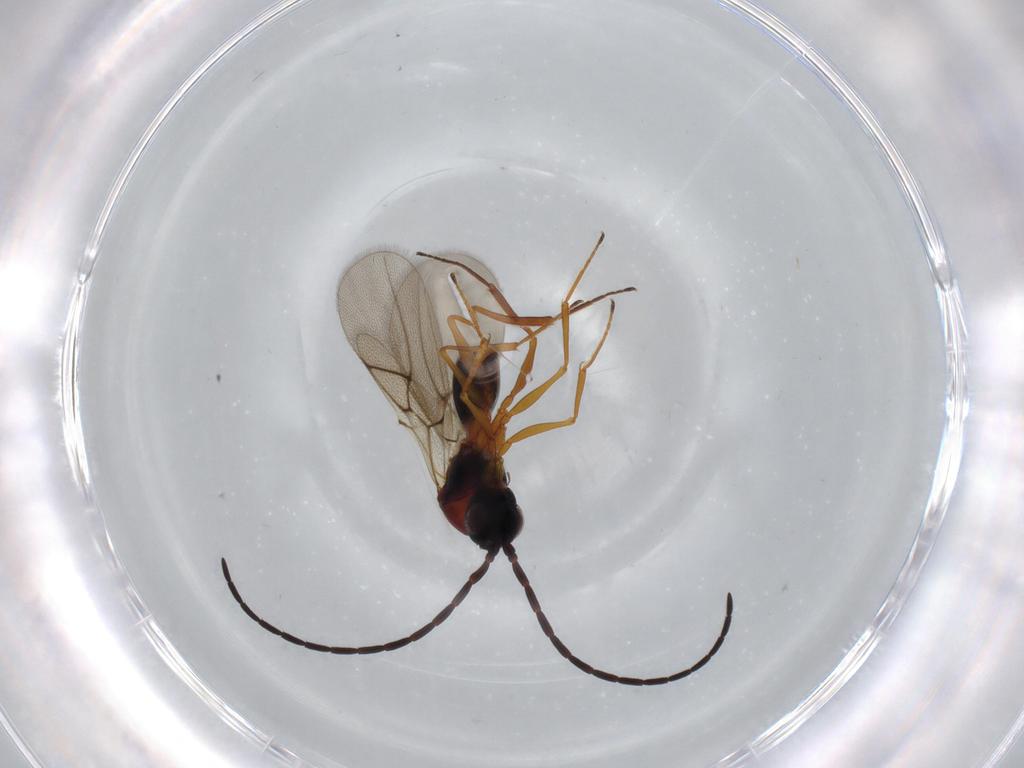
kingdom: Animalia
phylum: Arthropoda
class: Insecta
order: Hymenoptera
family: Figitidae
